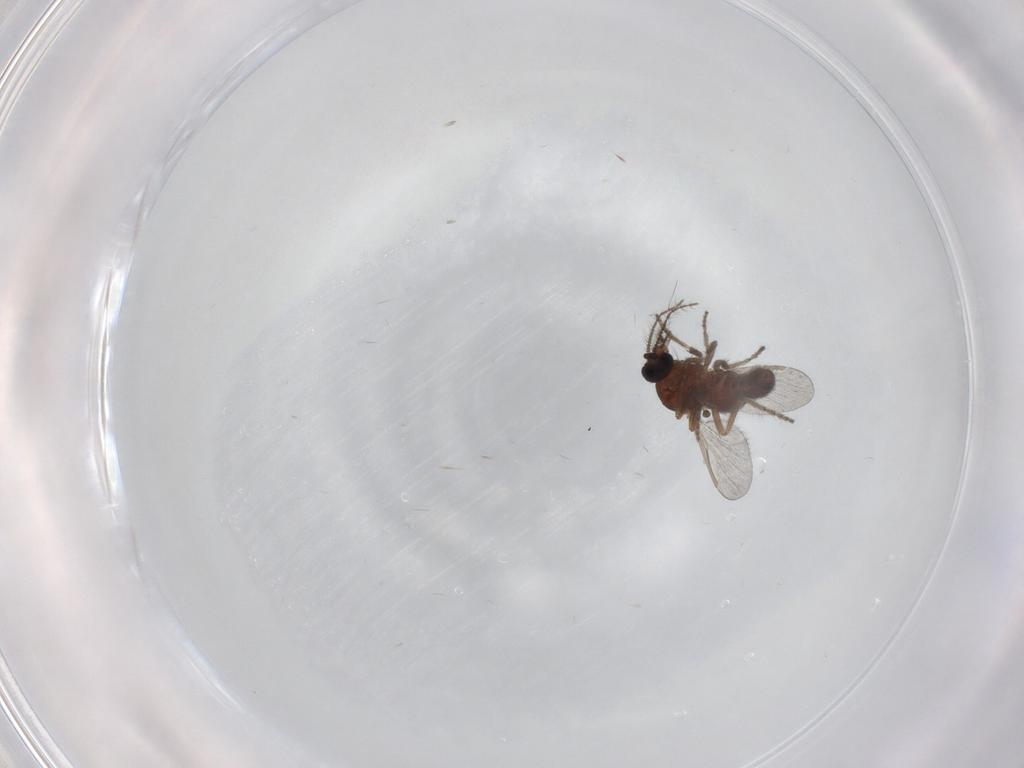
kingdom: Animalia
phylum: Arthropoda
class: Insecta
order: Diptera
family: Ceratopogonidae
